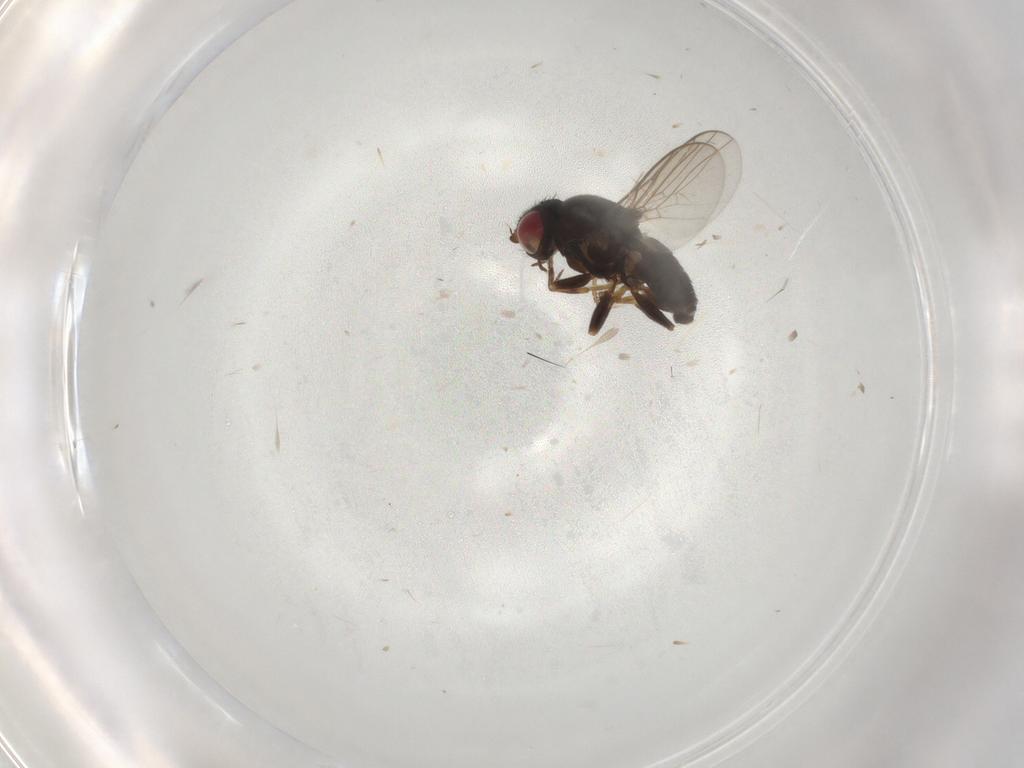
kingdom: Animalia
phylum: Arthropoda
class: Insecta
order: Diptera
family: Chloropidae
